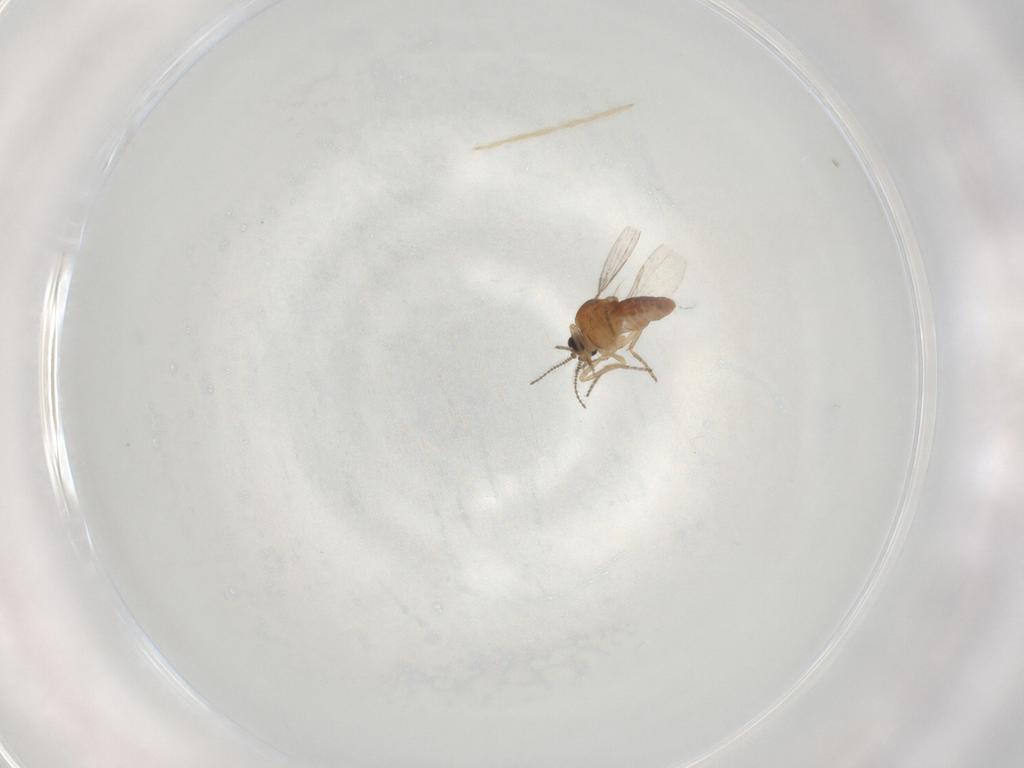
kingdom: Animalia
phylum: Arthropoda
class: Insecta
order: Diptera
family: Ceratopogonidae
